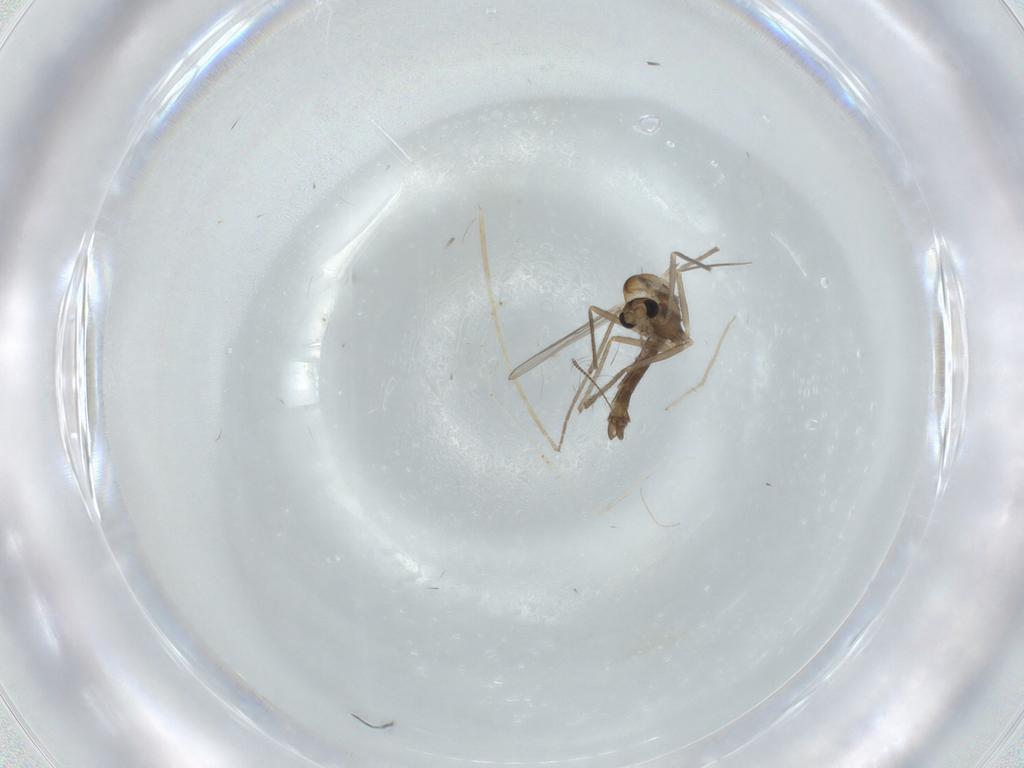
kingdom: Animalia
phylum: Arthropoda
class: Insecta
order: Diptera
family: Chironomidae
